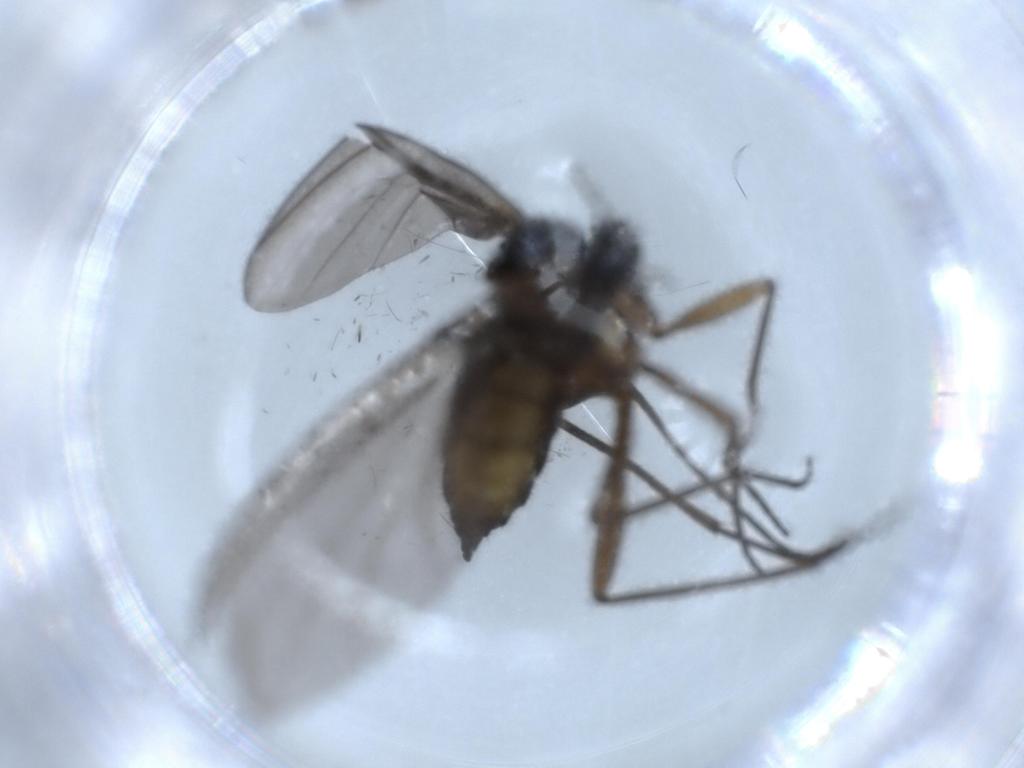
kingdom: Animalia
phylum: Arthropoda
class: Insecta
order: Diptera
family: Sciaridae
